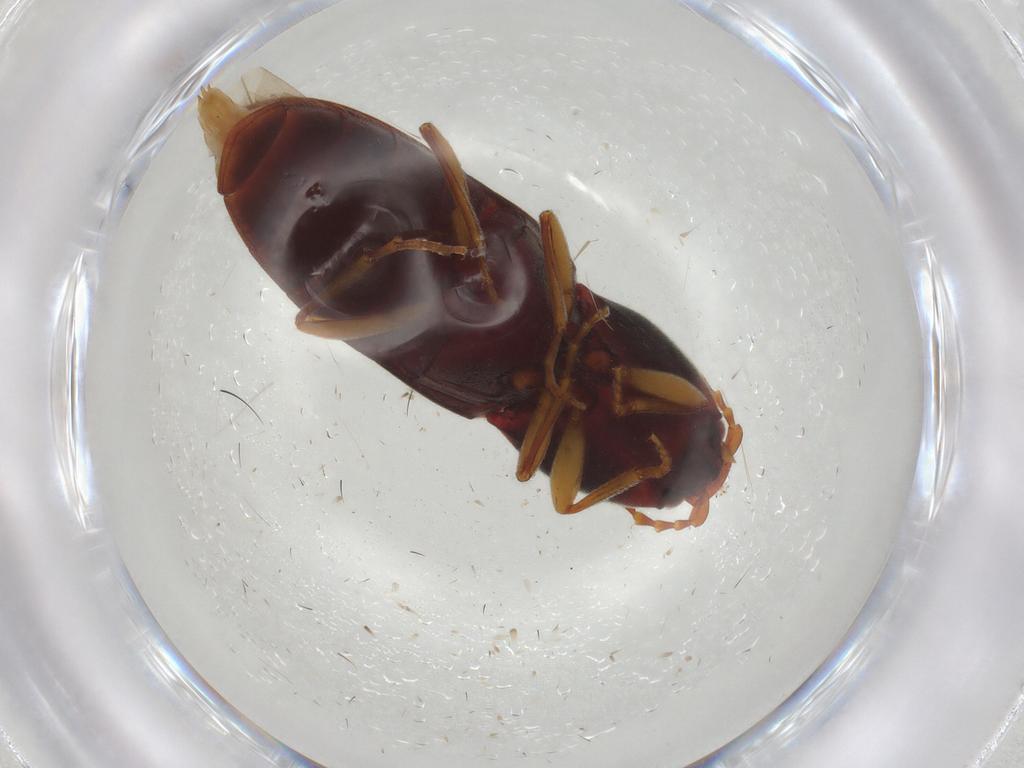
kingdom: Animalia
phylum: Arthropoda
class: Insecta
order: Coleoptera
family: Elateridae
